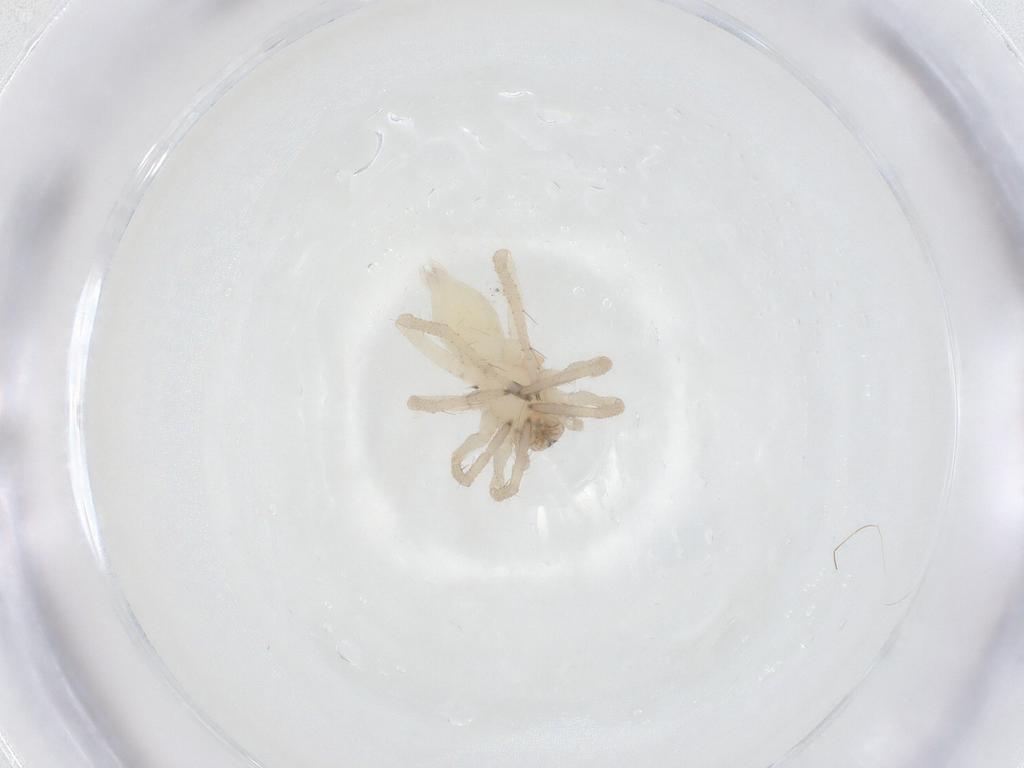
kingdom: Animalia
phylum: Arthropoda
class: Arachnida
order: Araneae
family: Clubionidae
